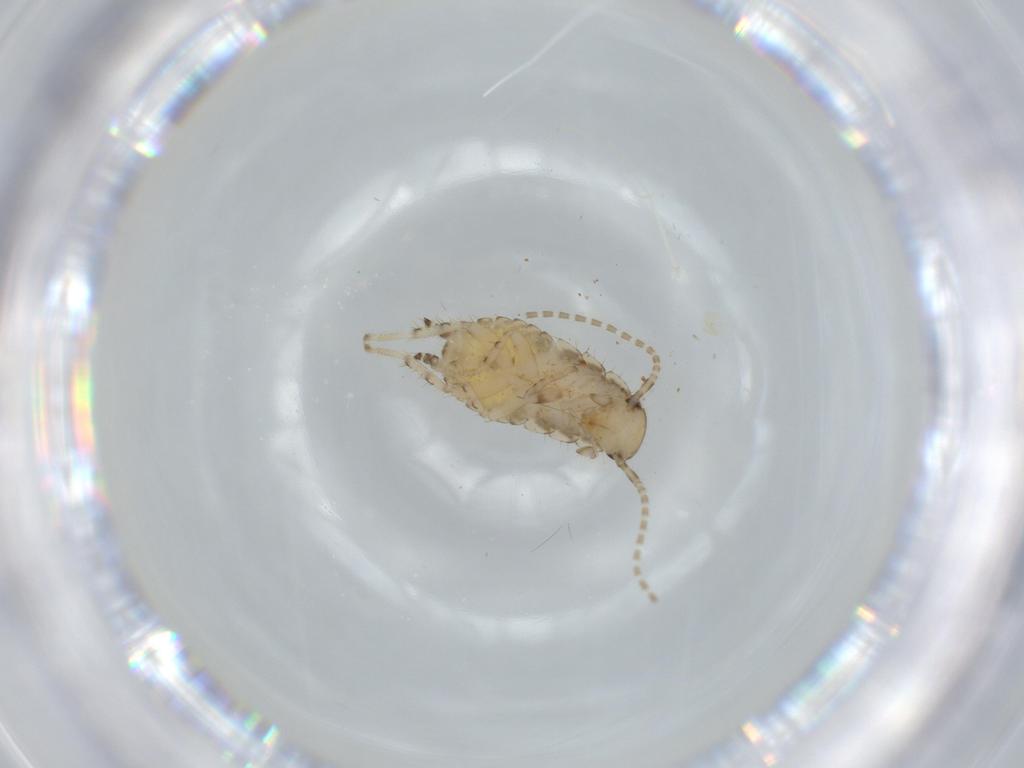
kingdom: Animalia
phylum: Arthropoda
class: Insecta
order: Blattodea
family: Ectobiidae
